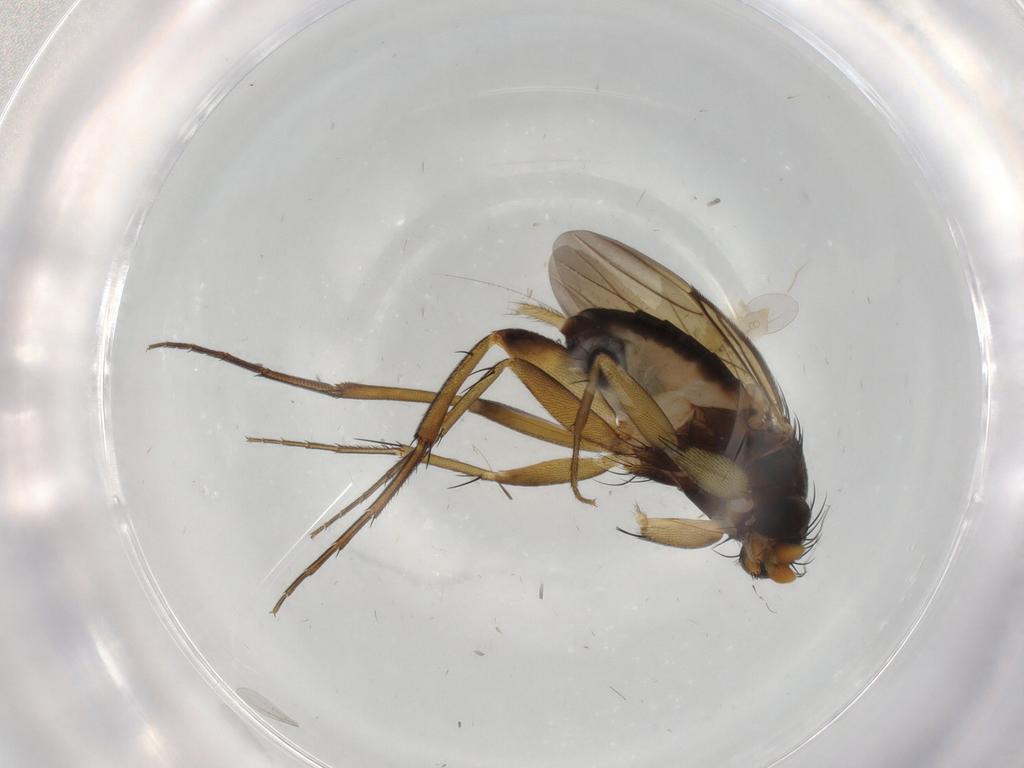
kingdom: Animalia
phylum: Arthropoda
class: Insecta
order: Diptera
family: Phoridae
